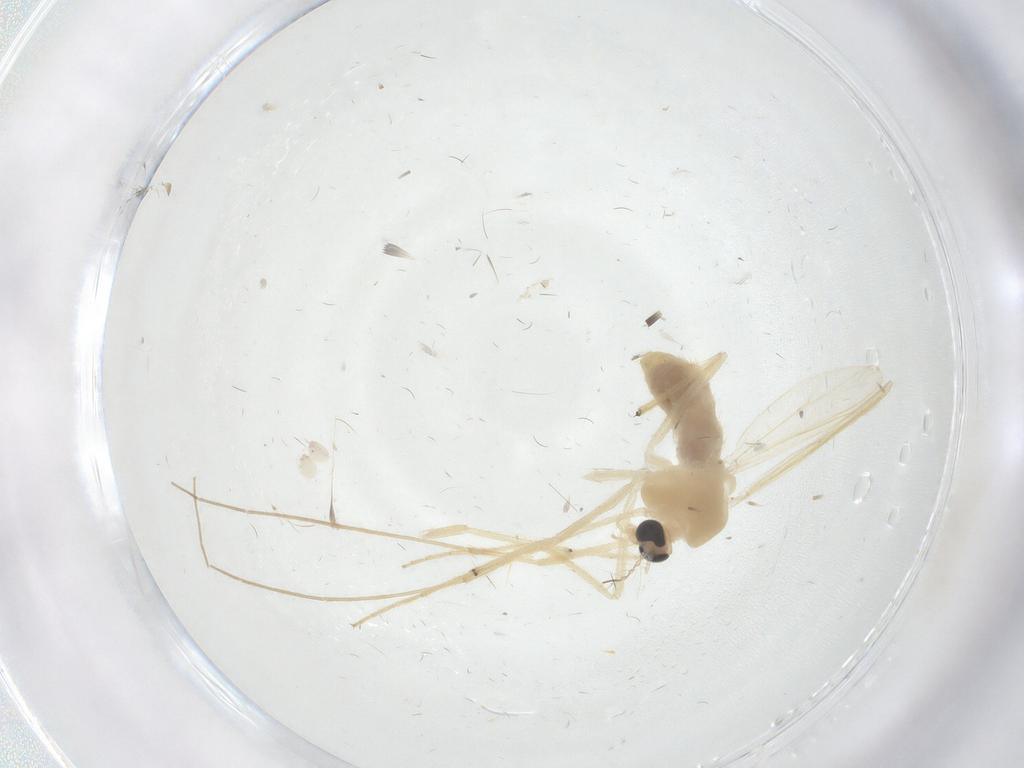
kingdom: Animalia
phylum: Arthropoda
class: Insecta
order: Diptera
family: Chironomidae
